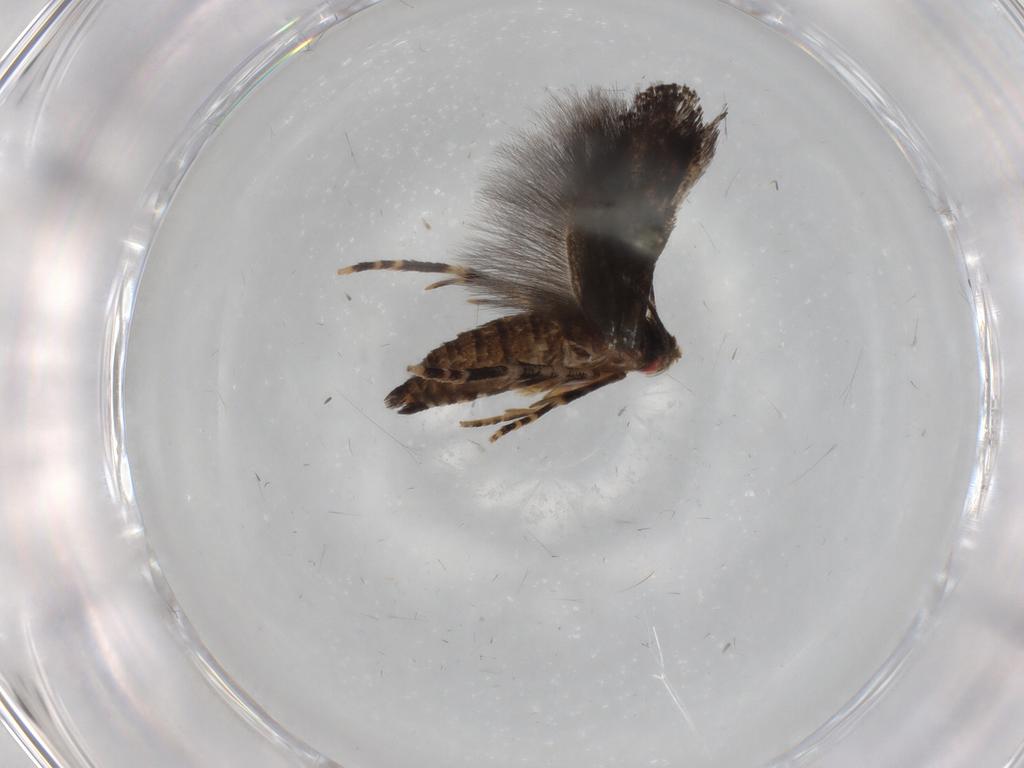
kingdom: Animalia
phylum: Arthropoda
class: Insecta
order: Lepidoptera
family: Momphidae
